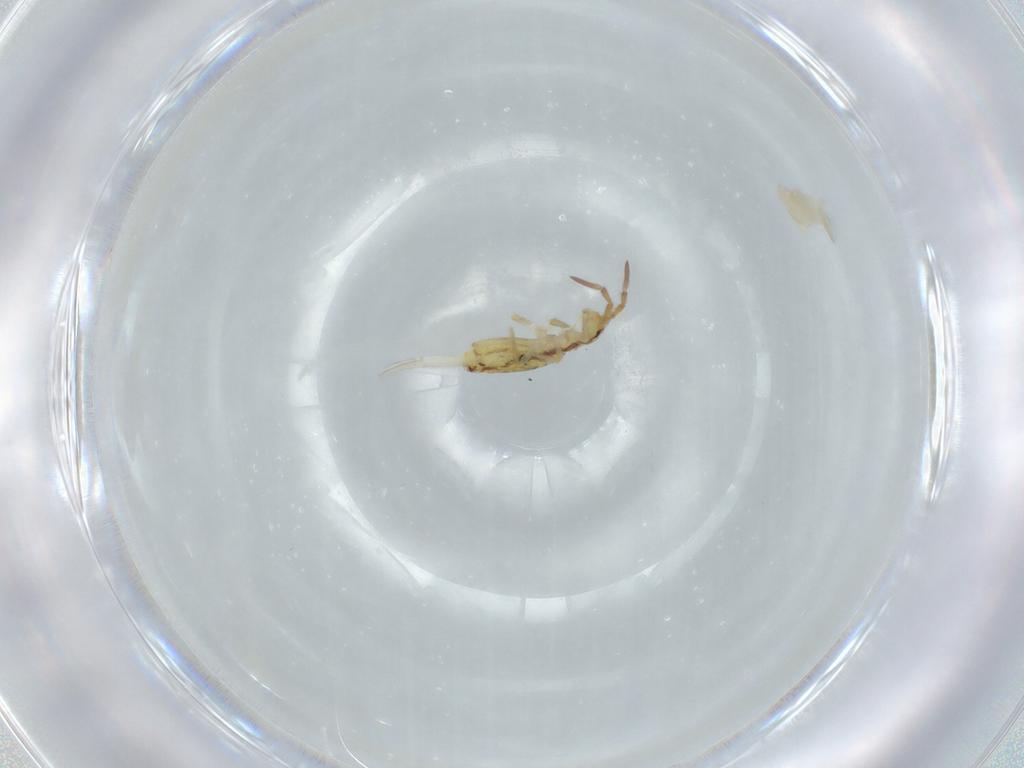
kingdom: Animalia
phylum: Arthropoda
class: Collembola
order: Entomobryomorpha
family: Entomobryidae
